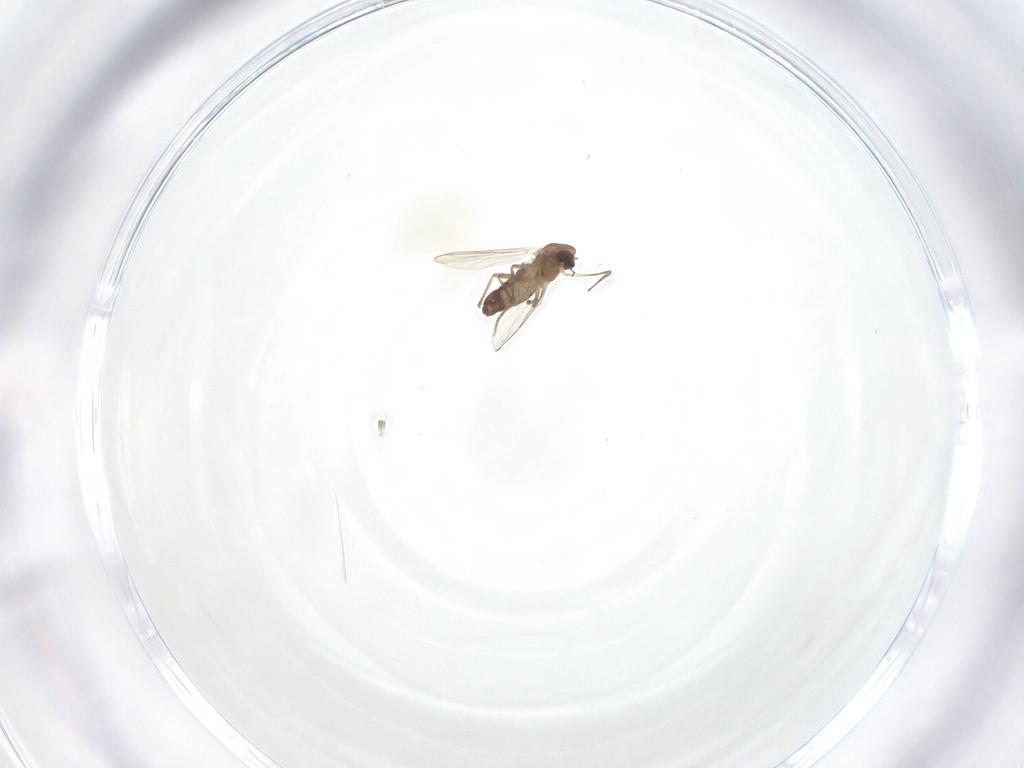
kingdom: Animalia
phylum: Arthropoda
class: Insecta
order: Diptera
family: Chironomidae
